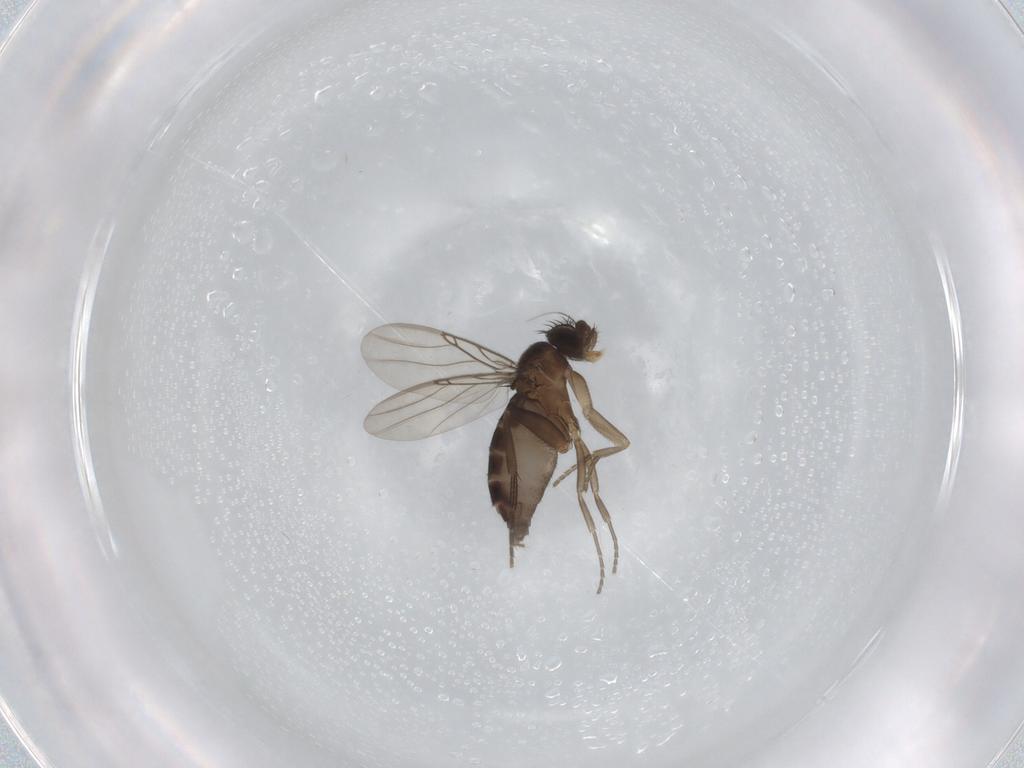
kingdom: Animalia
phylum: Arthropoda
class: Insecta
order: Diptera
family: Phoridae
